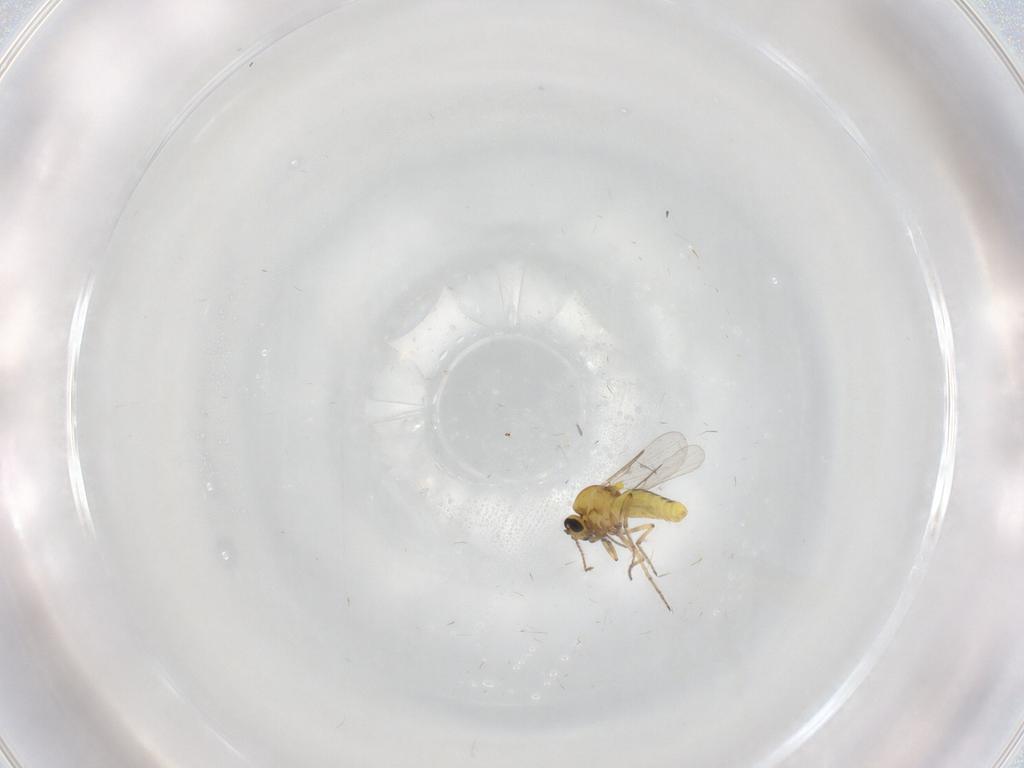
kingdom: Animalia
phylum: Arthropoda
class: Insecta
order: Diptera
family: Ceratopogonidae
